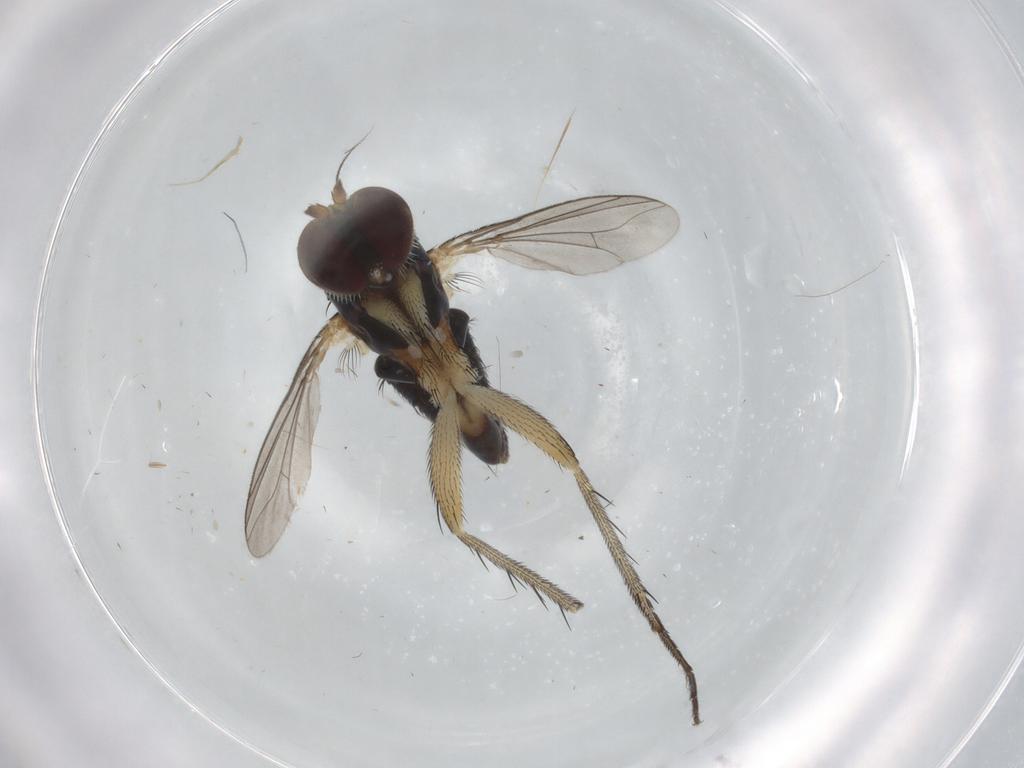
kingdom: Animalia
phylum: Arthropoda
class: Insecta
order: Diptera
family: Dolichopodidae
